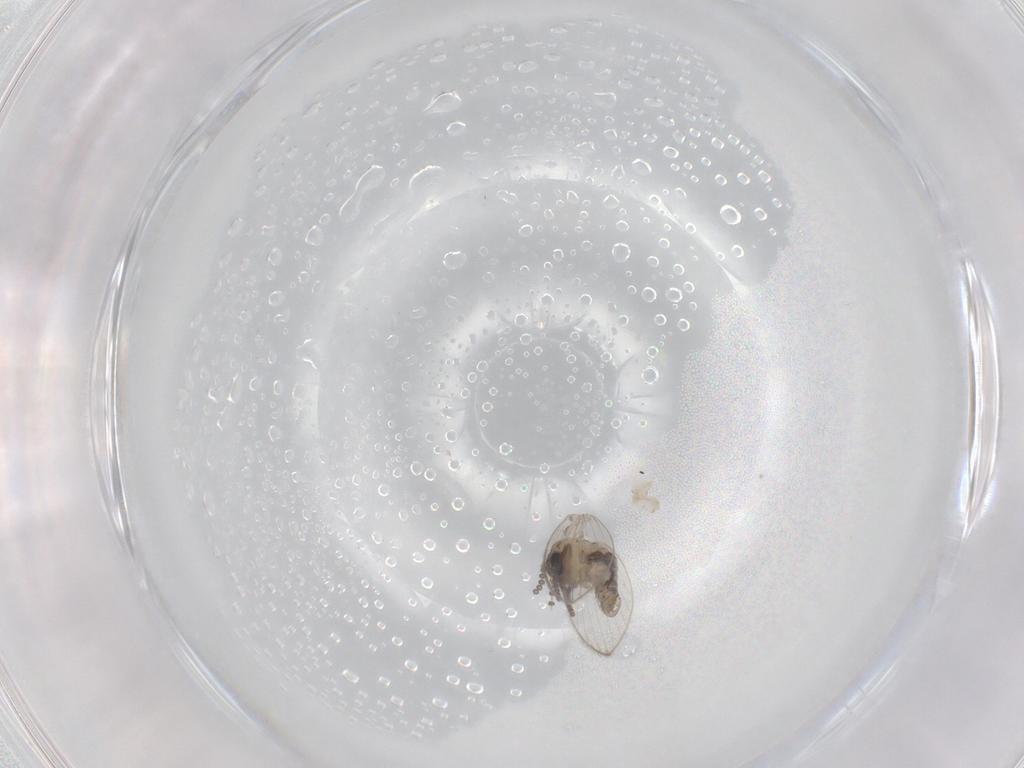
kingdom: Animalia
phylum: Arthropoda
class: Insecta
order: Diptera
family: Psychodidae
